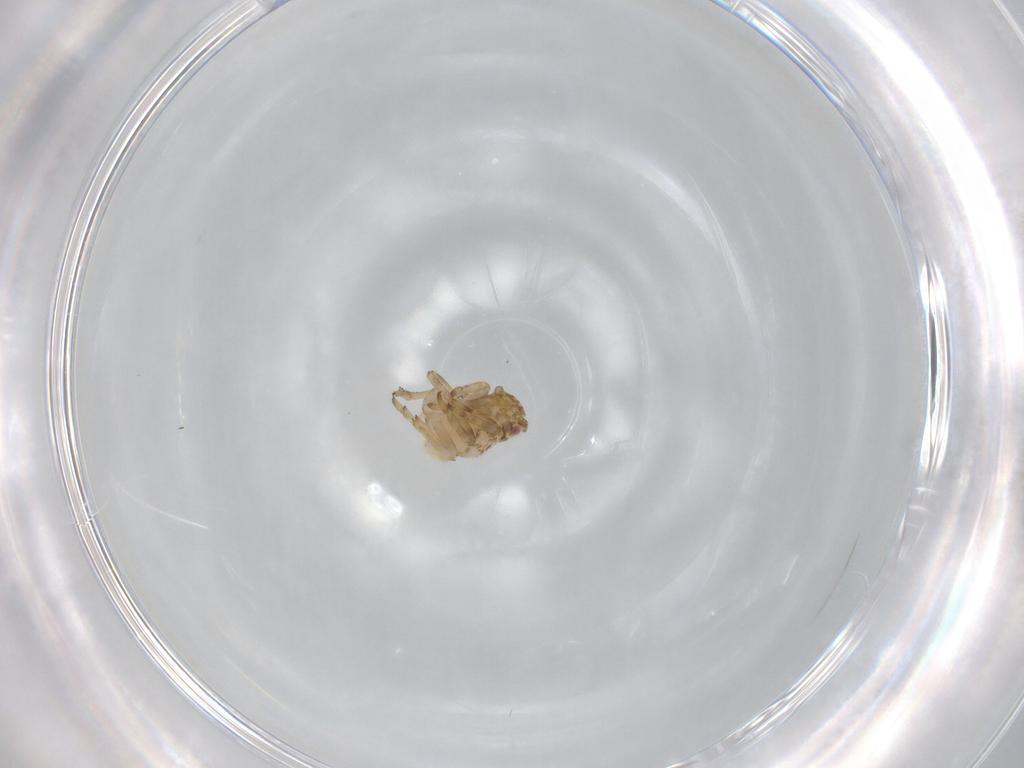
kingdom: Animalia
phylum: Arthropoda
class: Insecta
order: Hemiptera
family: Ricaniidae
